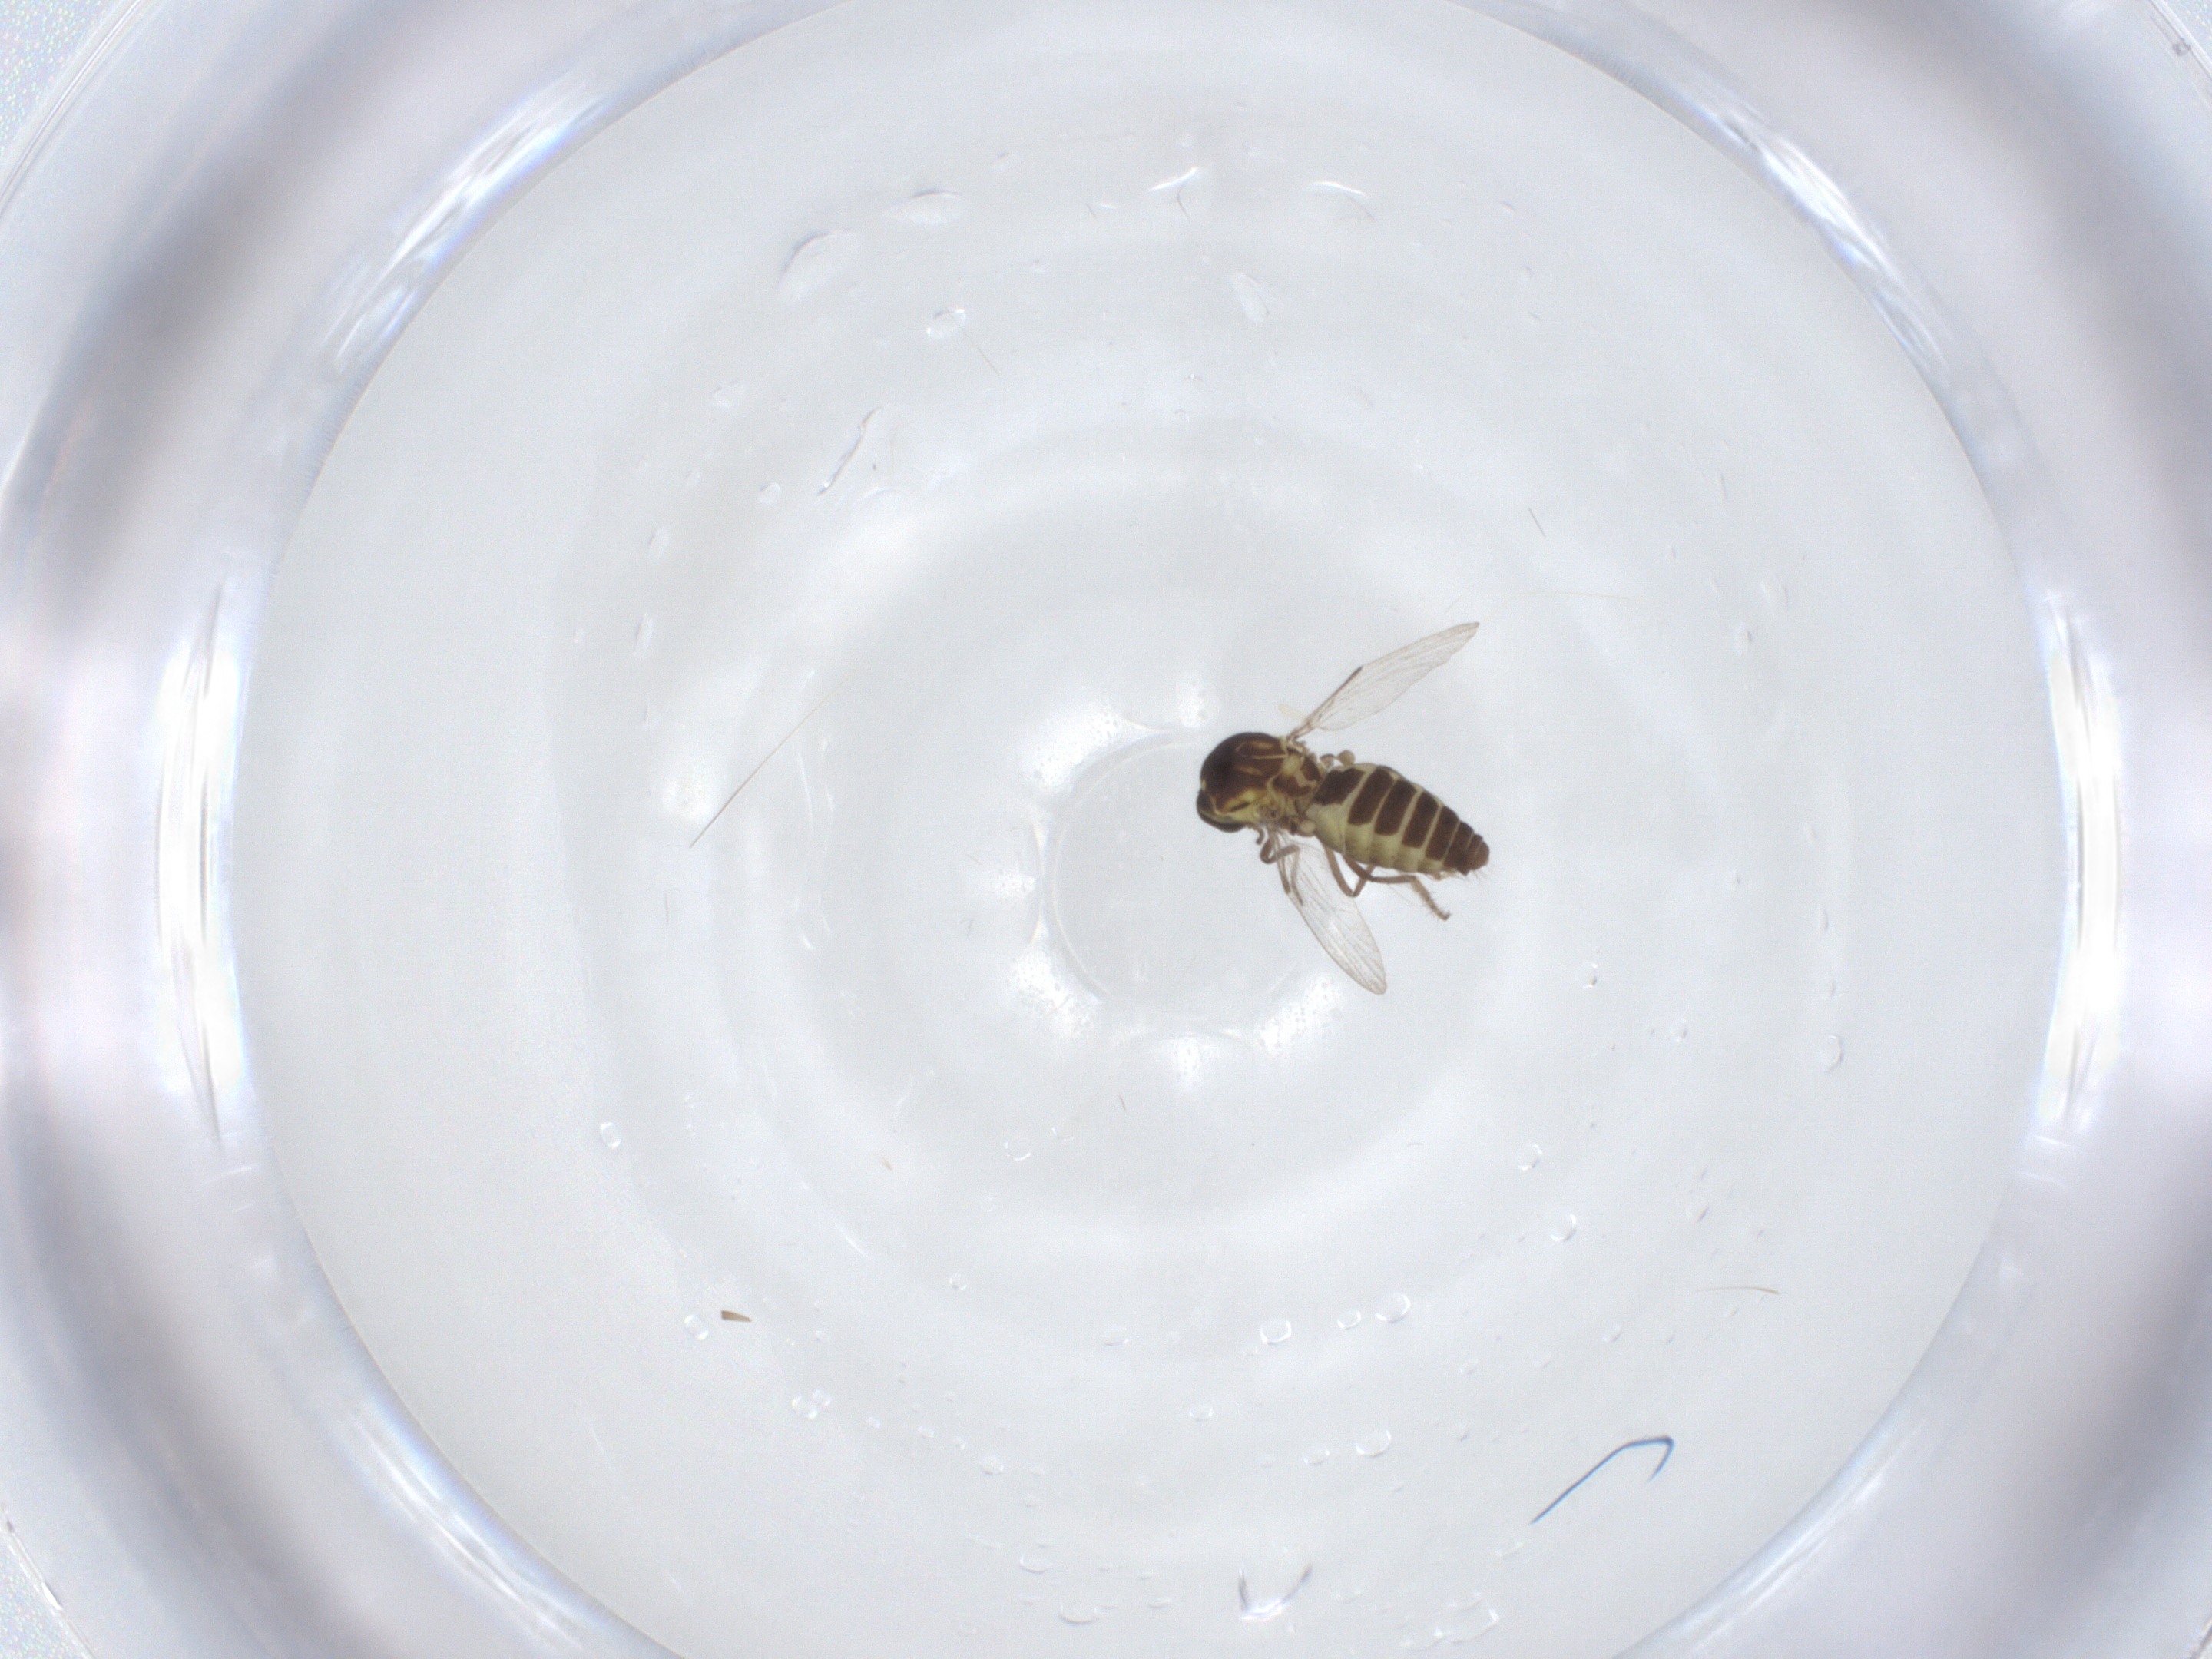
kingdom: Animalia
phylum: Arthropoda
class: Insecta
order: Diptera
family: Ceratopogonidae
